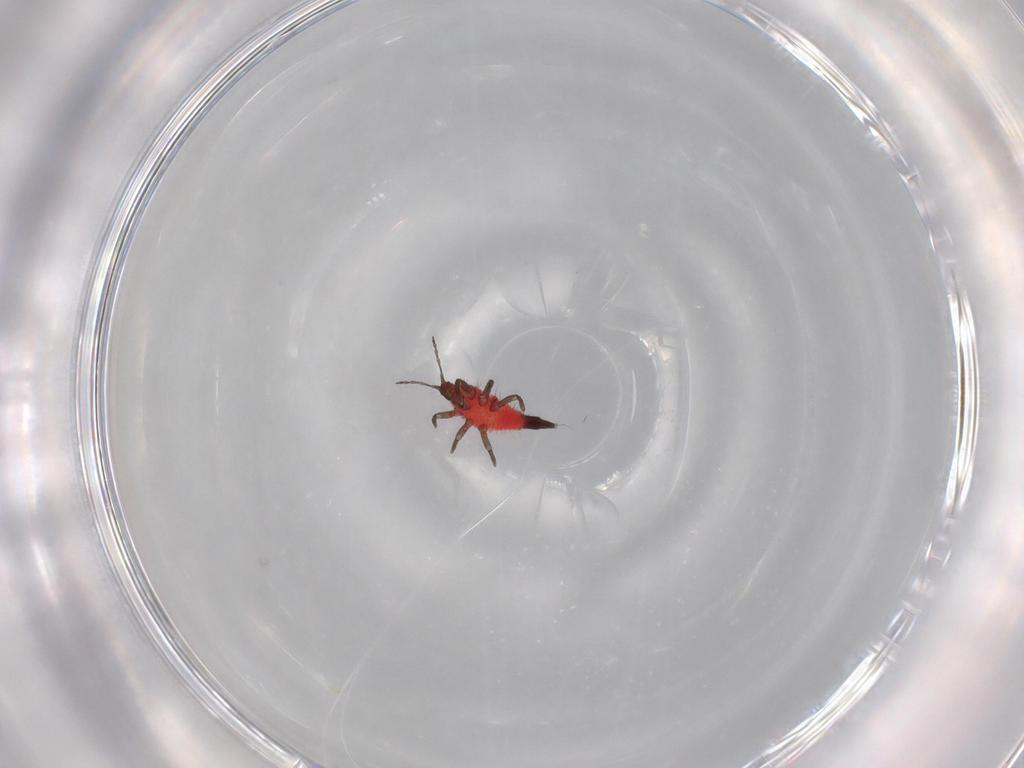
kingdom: Animalia
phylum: Arthropoda
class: Insecta
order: Thysanoptera
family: Phlaeothripidae
